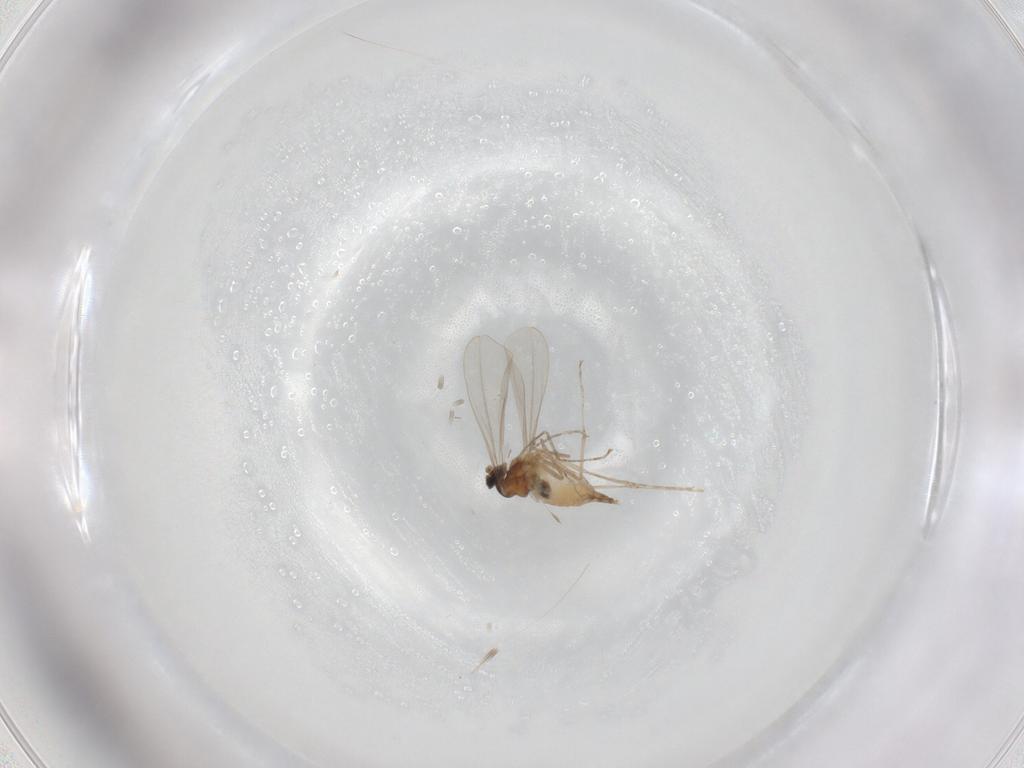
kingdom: Animalia
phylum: Arthropoda
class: Insecta
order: Diptera
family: Cecidomyiidae
